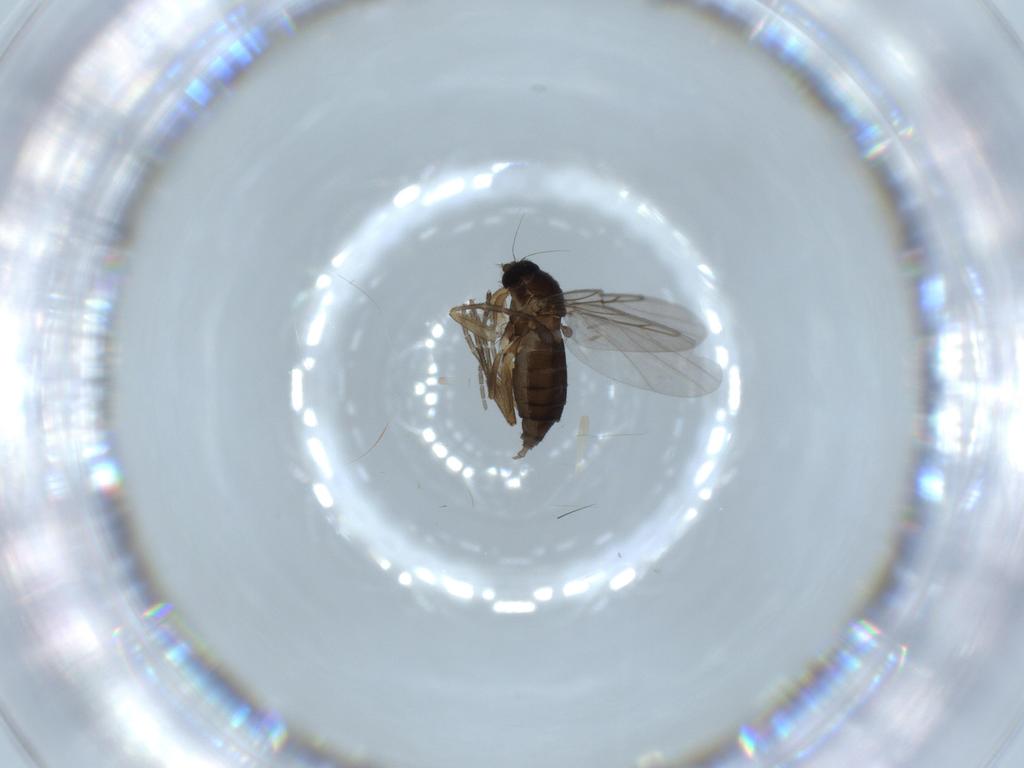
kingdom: Animalia
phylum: Arthropoda
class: Insecta
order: Diptera
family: Phoridae
